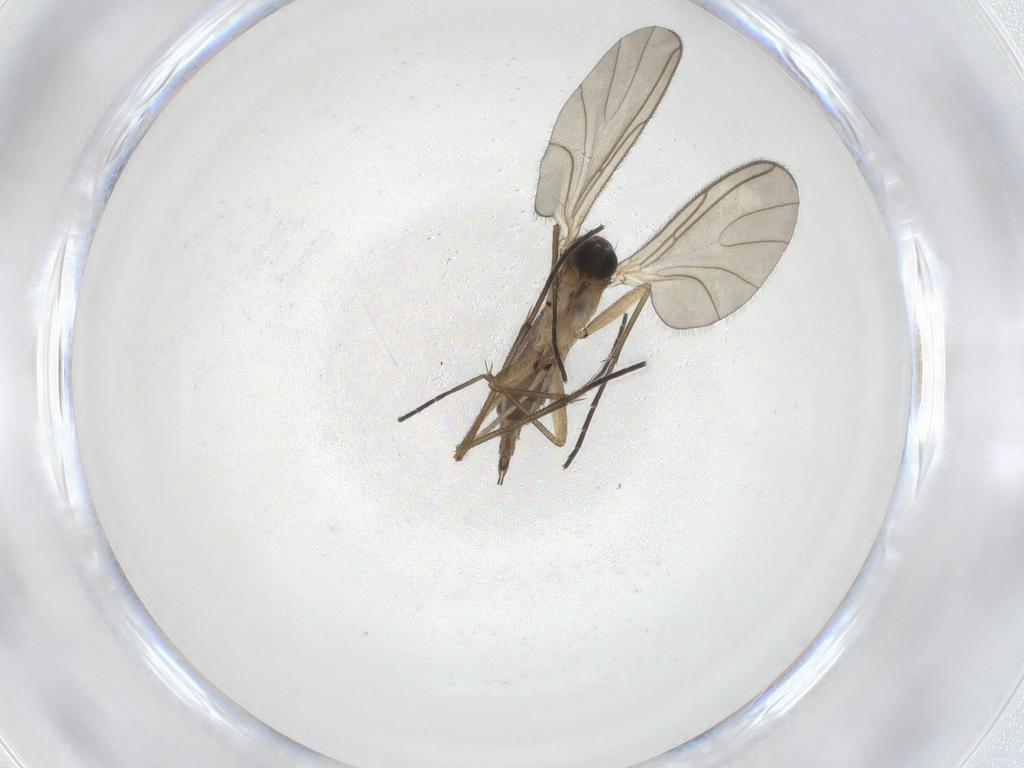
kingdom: Animalia
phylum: Arthropoda
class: Insecta
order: Diptera
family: Sciaridae
